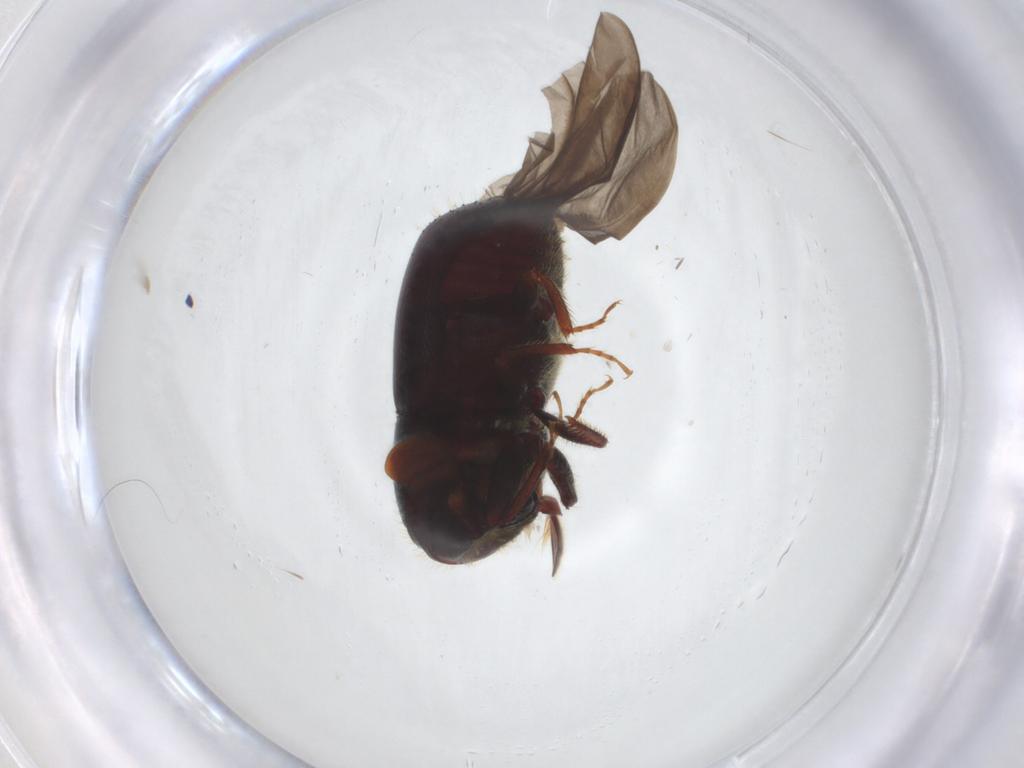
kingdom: Animalia
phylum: Arthropoda
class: Insecta
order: Coleoptera
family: Curculionidae
